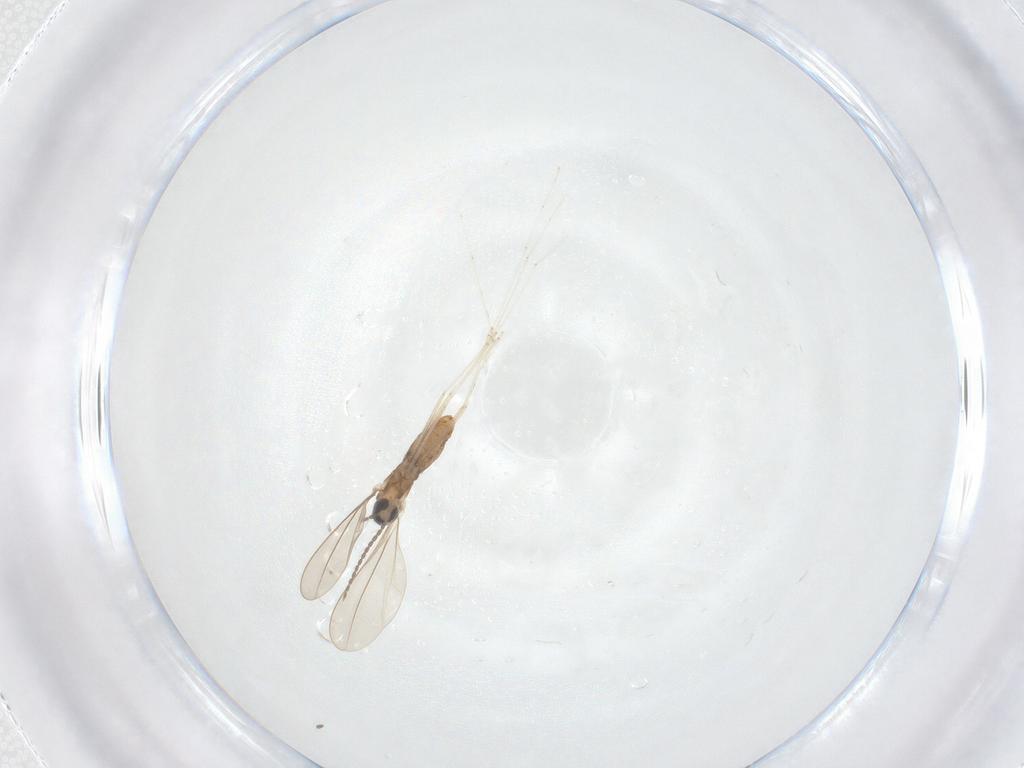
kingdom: Animalia
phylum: Arthropoda
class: Insecta
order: Diptera
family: Cecidomyiidae
